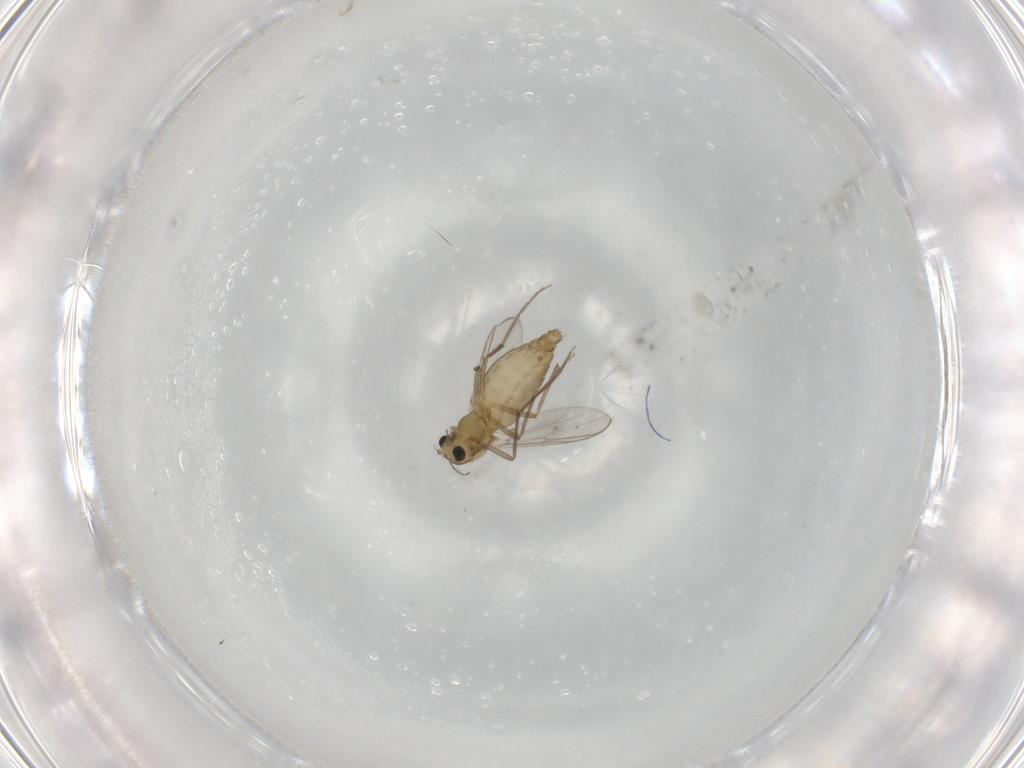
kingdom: Animalia
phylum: Arthropoda
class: Insecta
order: Diptera
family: Chironomidae
